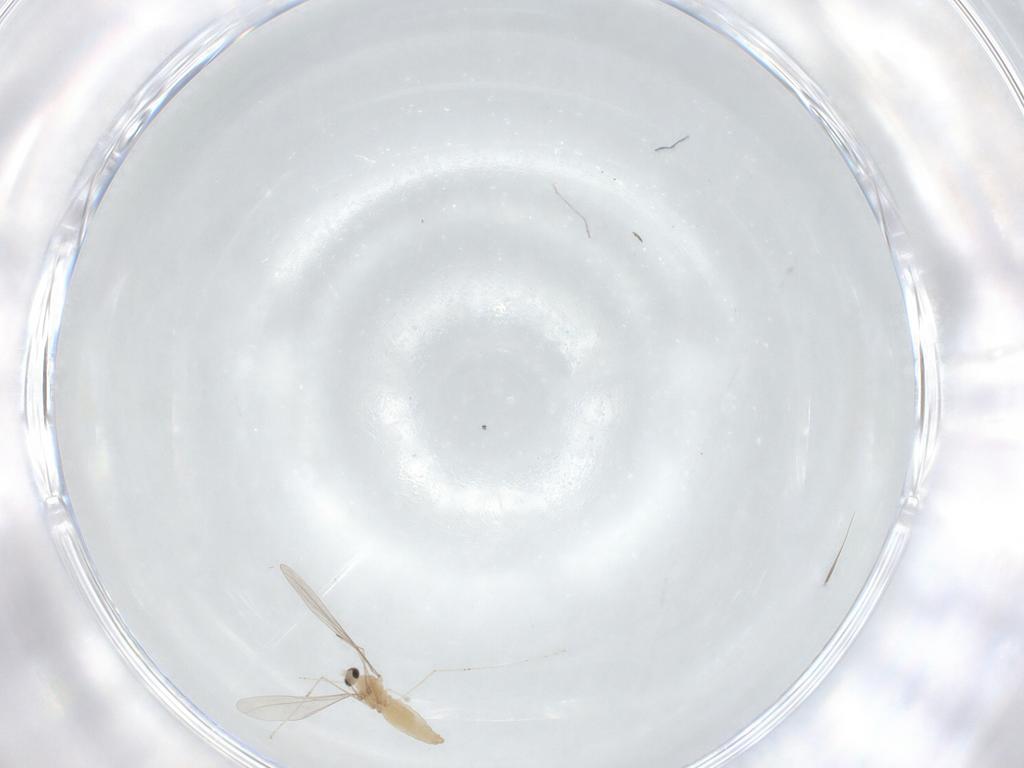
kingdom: Animalia
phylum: Arthropoda
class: Insecta
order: Diptera
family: Cecidomyiidae
